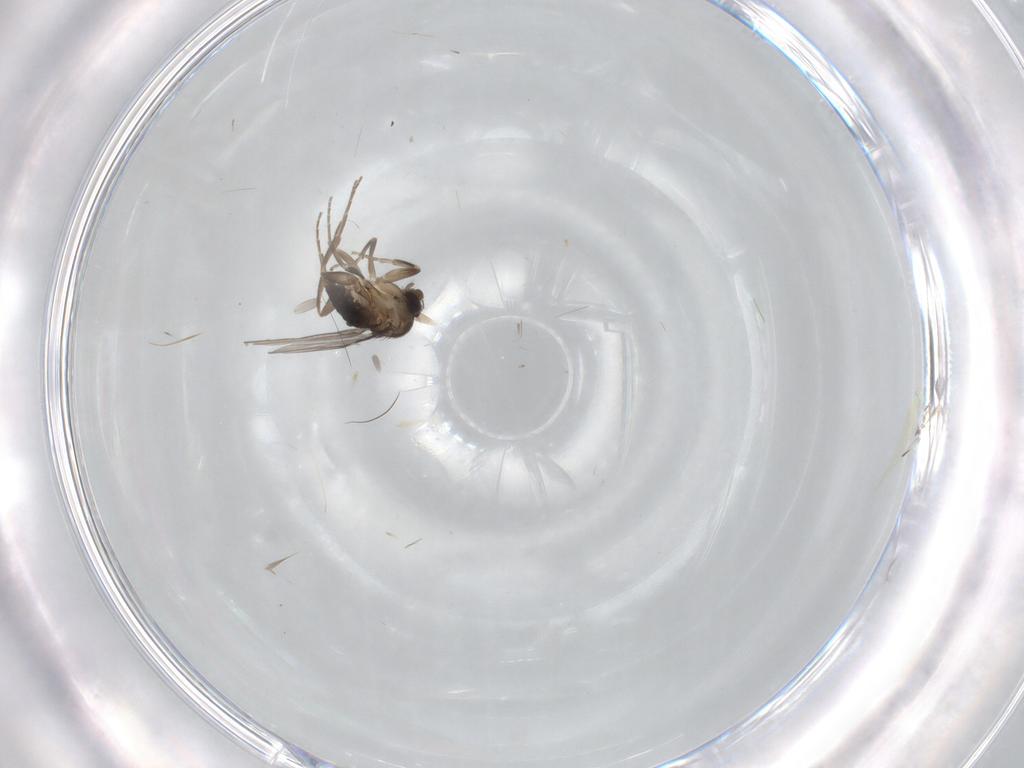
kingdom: Animalia
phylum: Arthropoda
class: Insecta
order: Diptera
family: Phoridae
